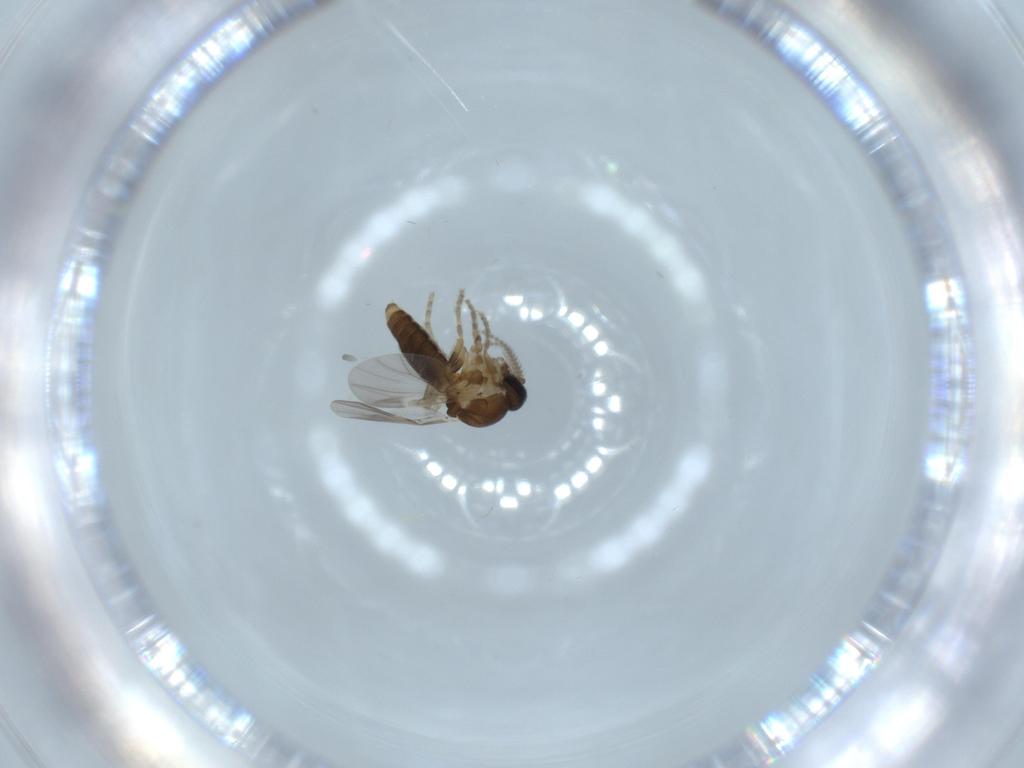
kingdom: Animalia
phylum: Arthropoda
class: Insecta
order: Diptera
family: Ceratopogonidae
